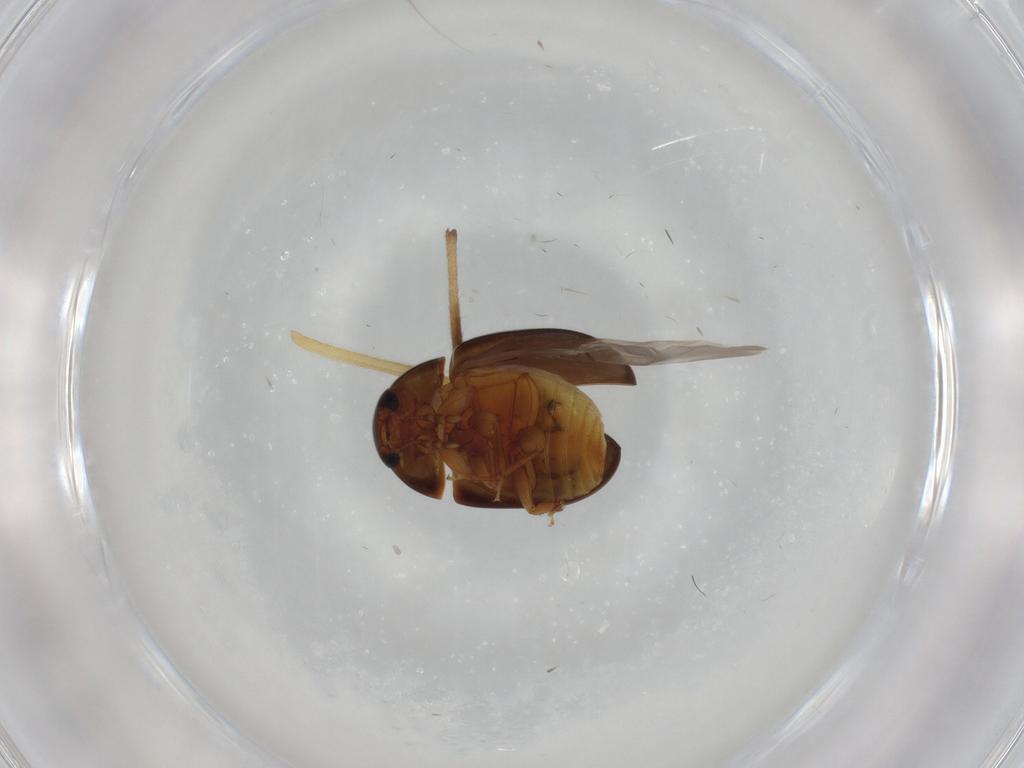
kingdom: Animalia
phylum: Arthropoda
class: Insecta
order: Coleoptera
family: Phalacridae
